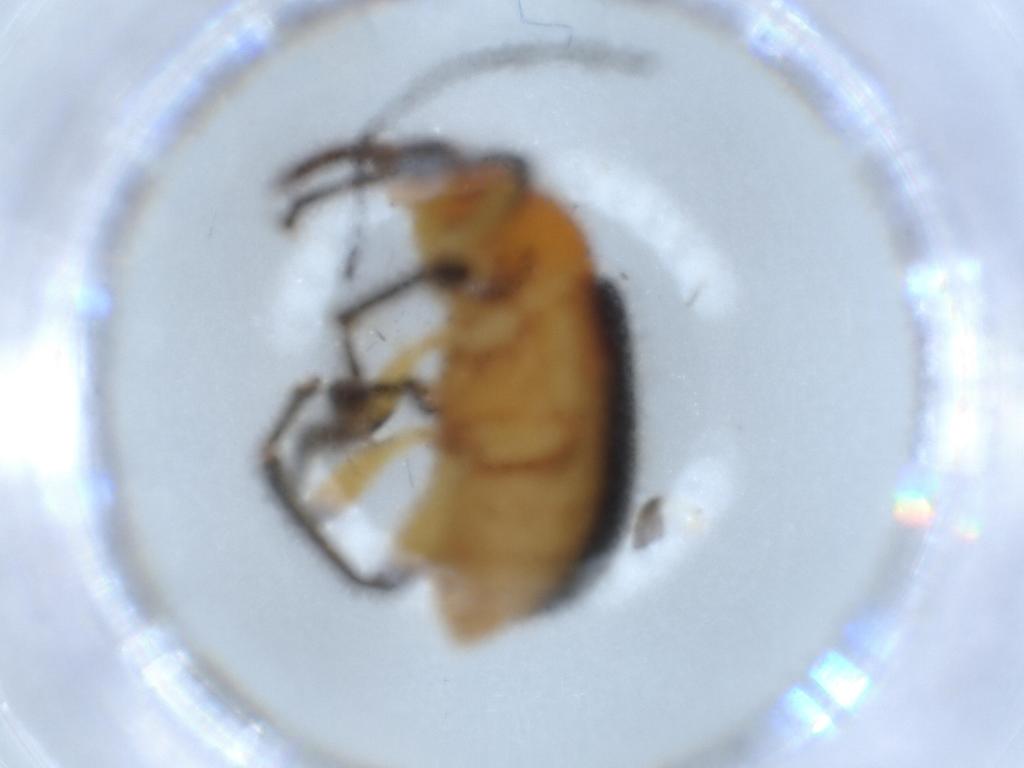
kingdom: Animalia
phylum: Arthropoda
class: Insecta
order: Coleoptera
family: Attelabidae
